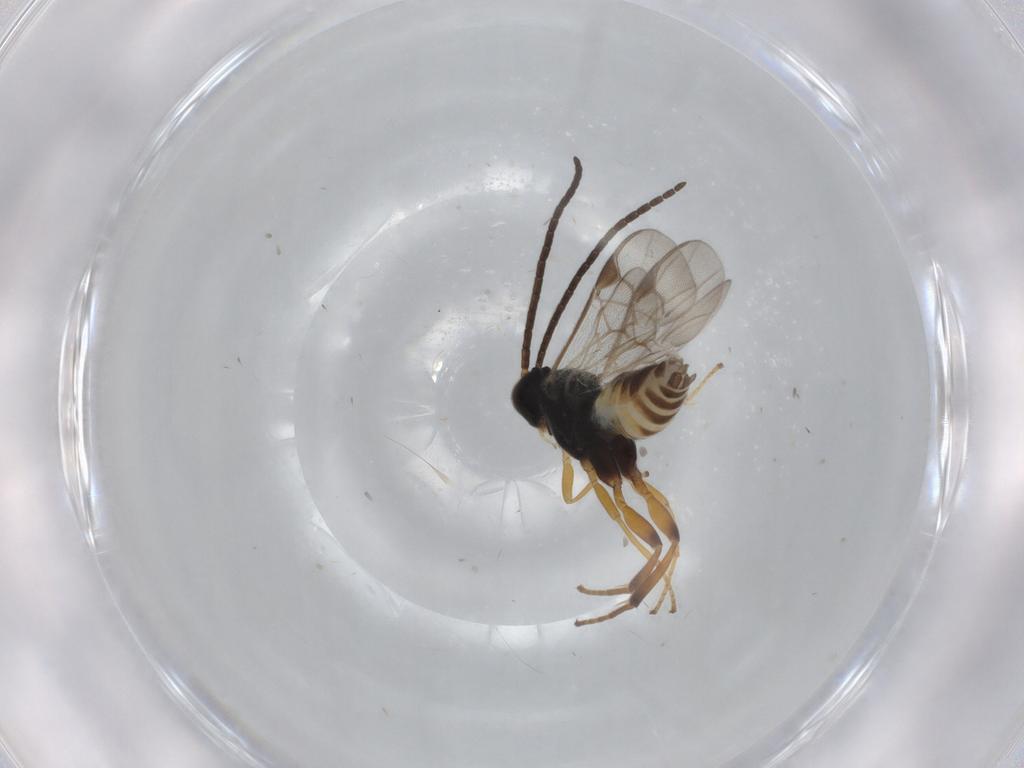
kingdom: Animalia
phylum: Arthropoda
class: Insecta
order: Hymenoptera
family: Braconidae
